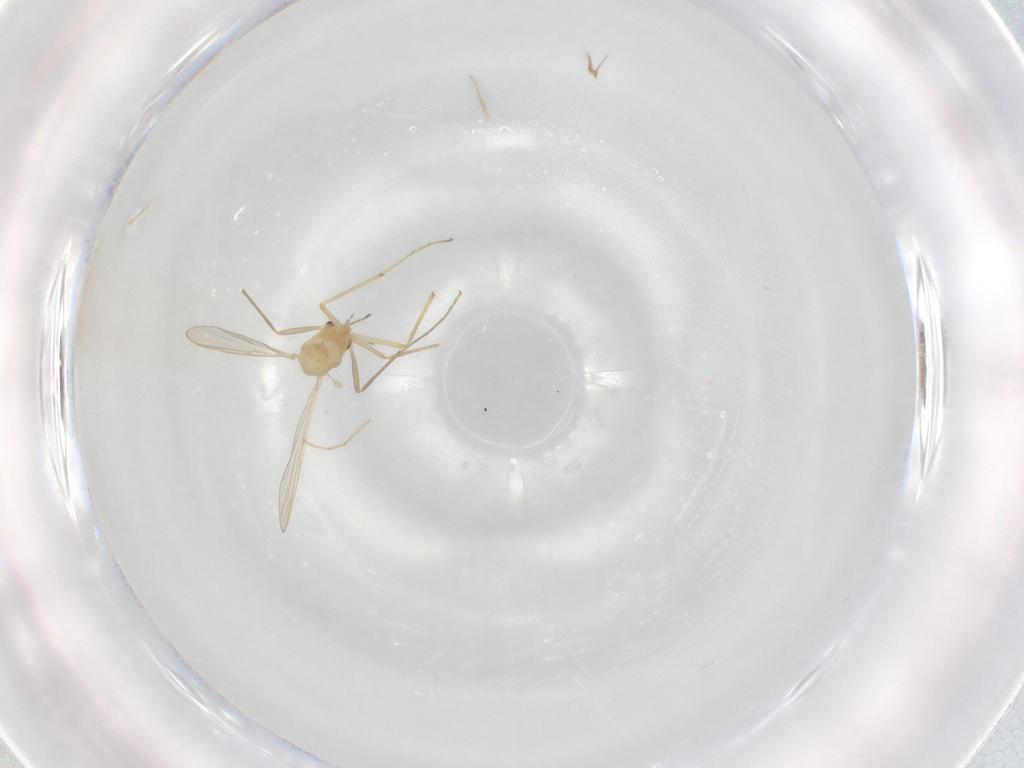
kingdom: Animalia
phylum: Arthropoda
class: Insecta
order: Diptera
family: Chironomidae
